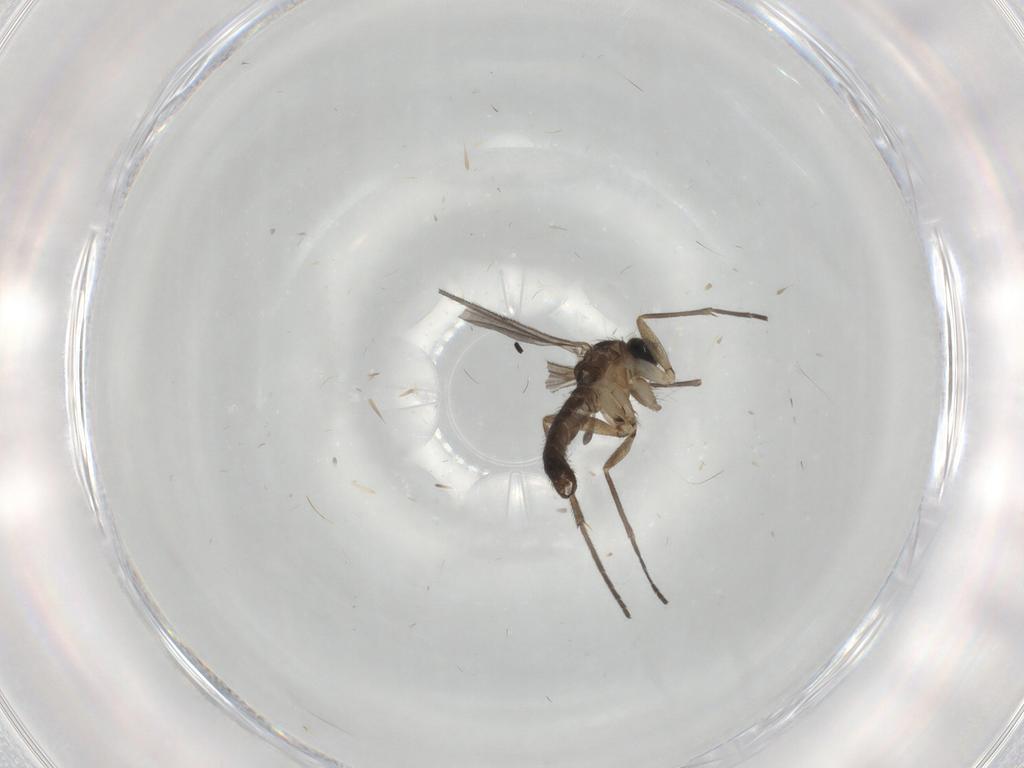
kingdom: Animalia
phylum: Arthropoda
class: Insecta
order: Diptera
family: Sciaridae
